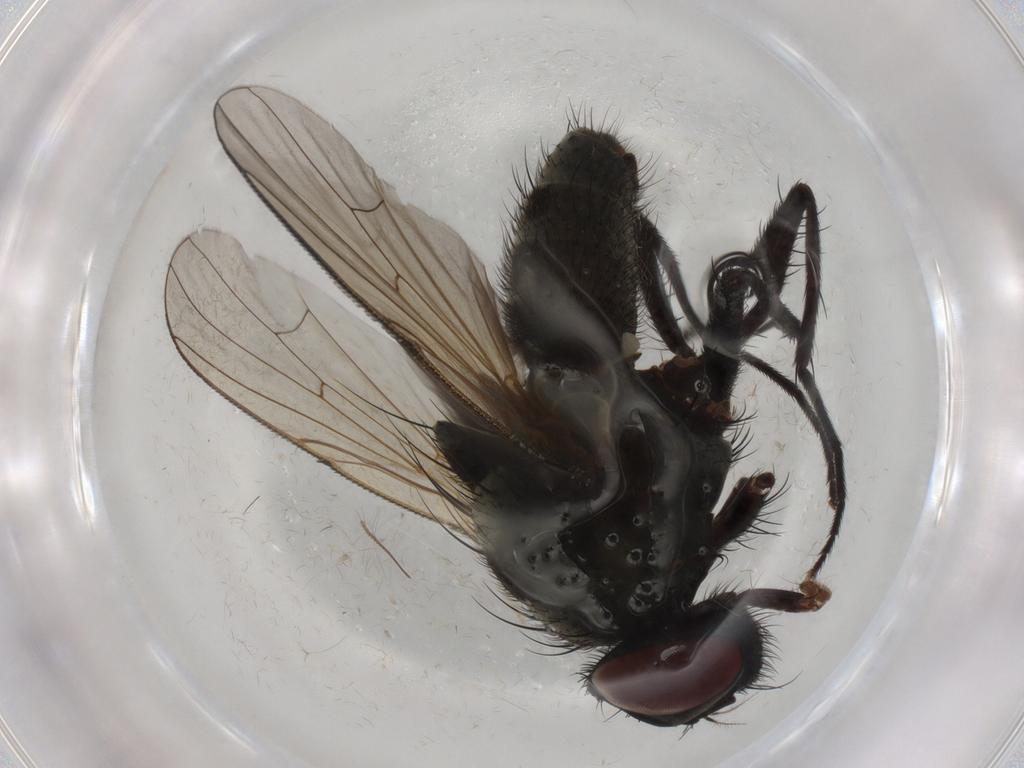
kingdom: Animalia
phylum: Arthropoda
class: Insecta
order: Diptera
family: Muscidae
